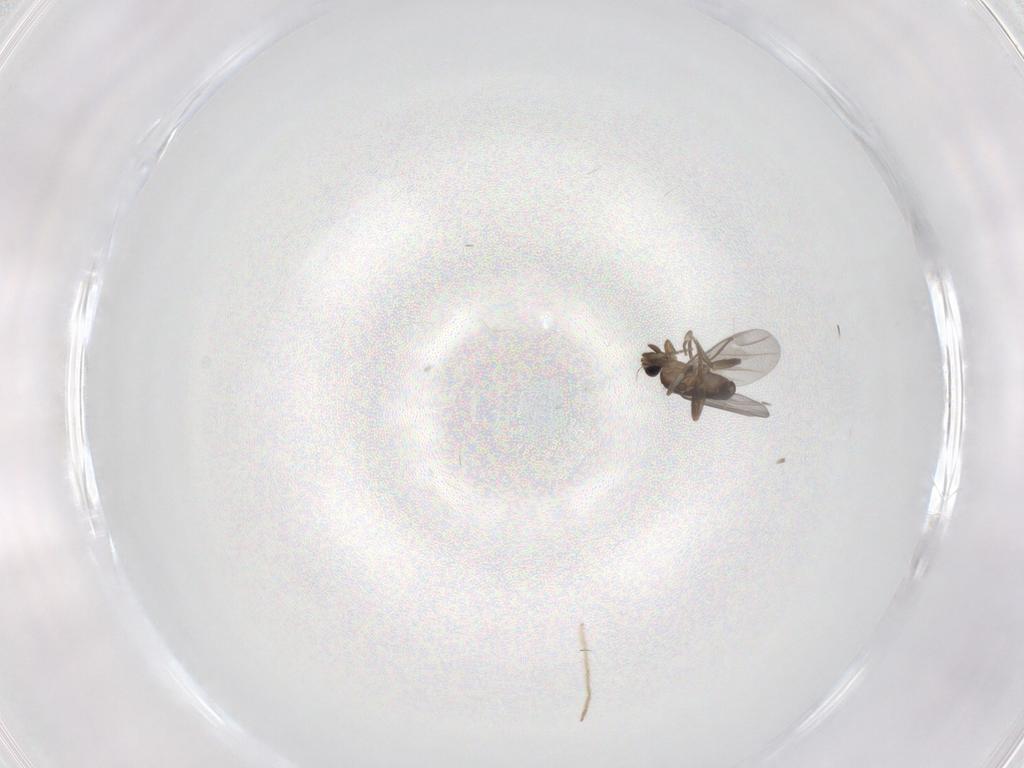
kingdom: Animalia
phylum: Arthropoda
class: Insecta
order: Diptera
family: Chironomidae
